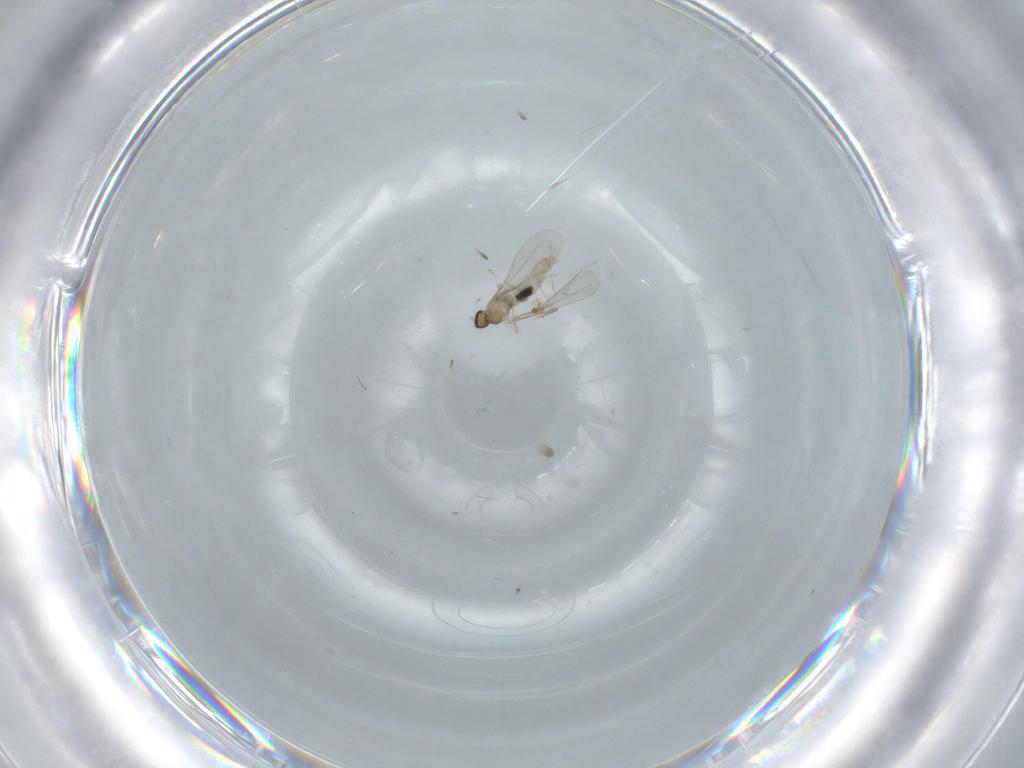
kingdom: Animalia
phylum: Arthropoda
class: Insecta
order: Diptera
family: Cecidomyiidae
